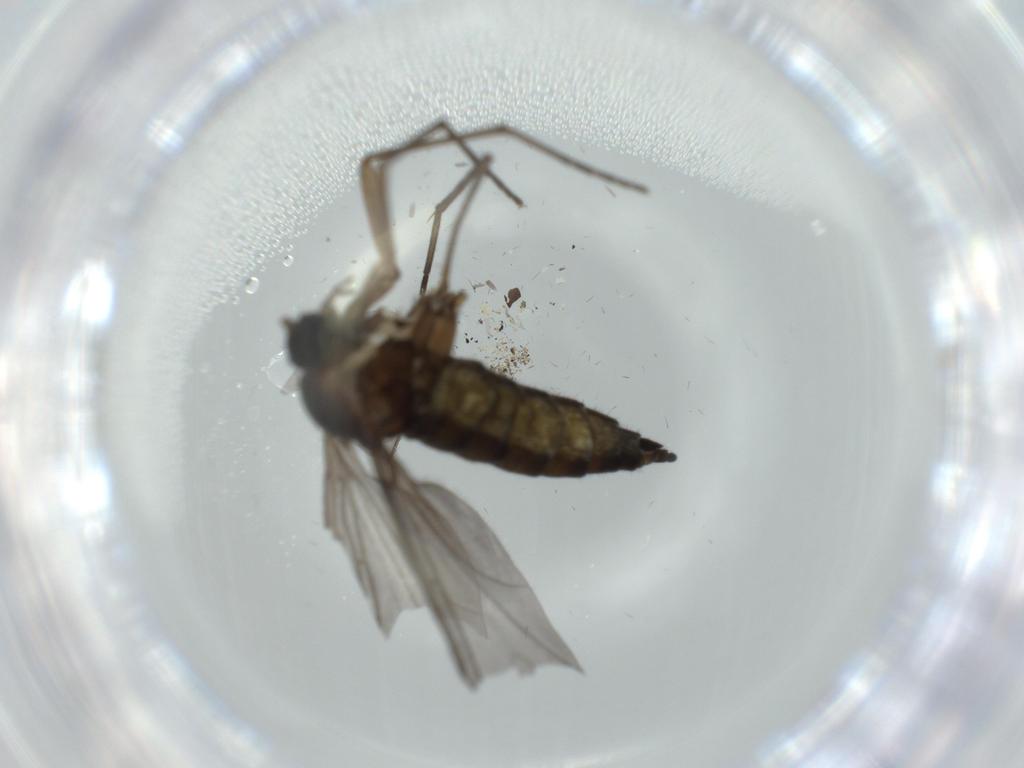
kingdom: Animalia
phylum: Arthropoda
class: Insecta
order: Diptera
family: Sciaridae
